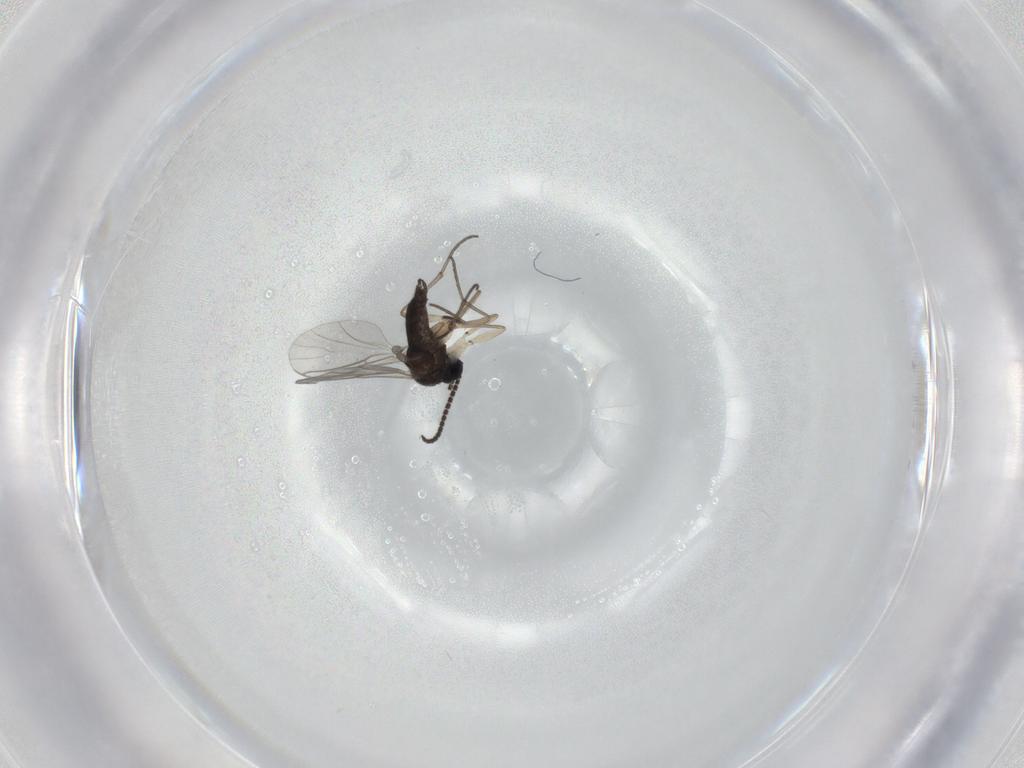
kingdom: Animalia
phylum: Arthropoda
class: Insecta
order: Diptera
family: Sciaridae
